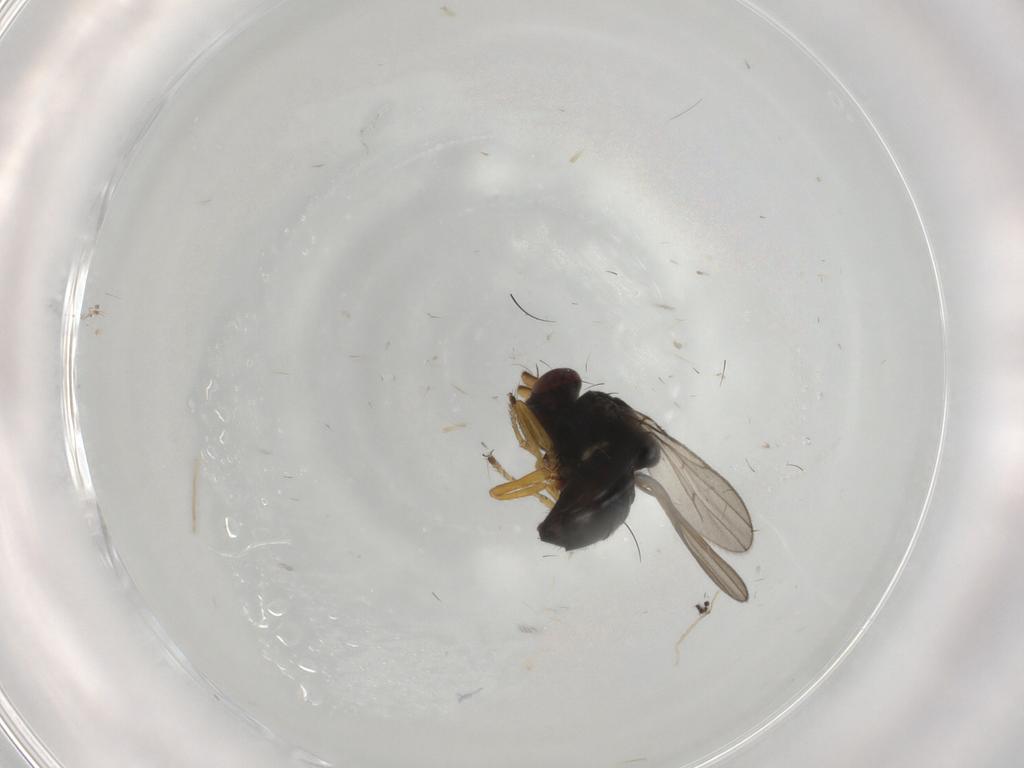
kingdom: Animalia
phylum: Arthropoda
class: Insecta
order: Diptera
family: Ephydridae
